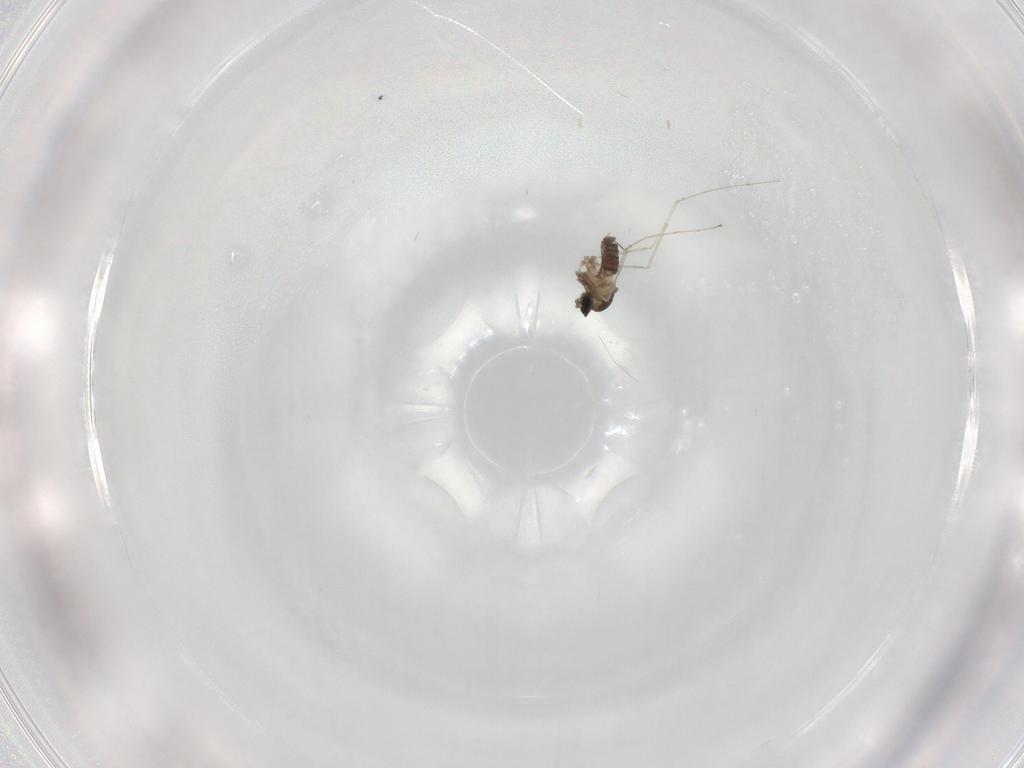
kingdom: Animalia
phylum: Arthropoda
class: Insecta
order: Diptera
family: Cecidomyiidae
